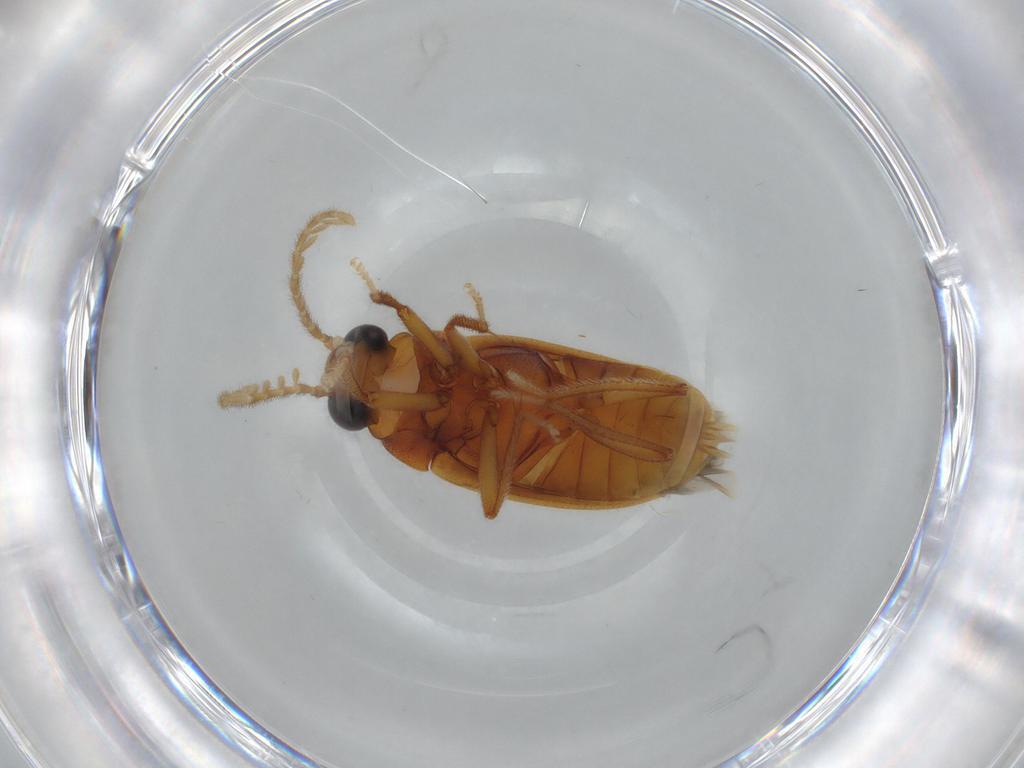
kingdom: Animalia
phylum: Arthropoda
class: Insecta
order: Coleoptera
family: Ptilodactylidae
